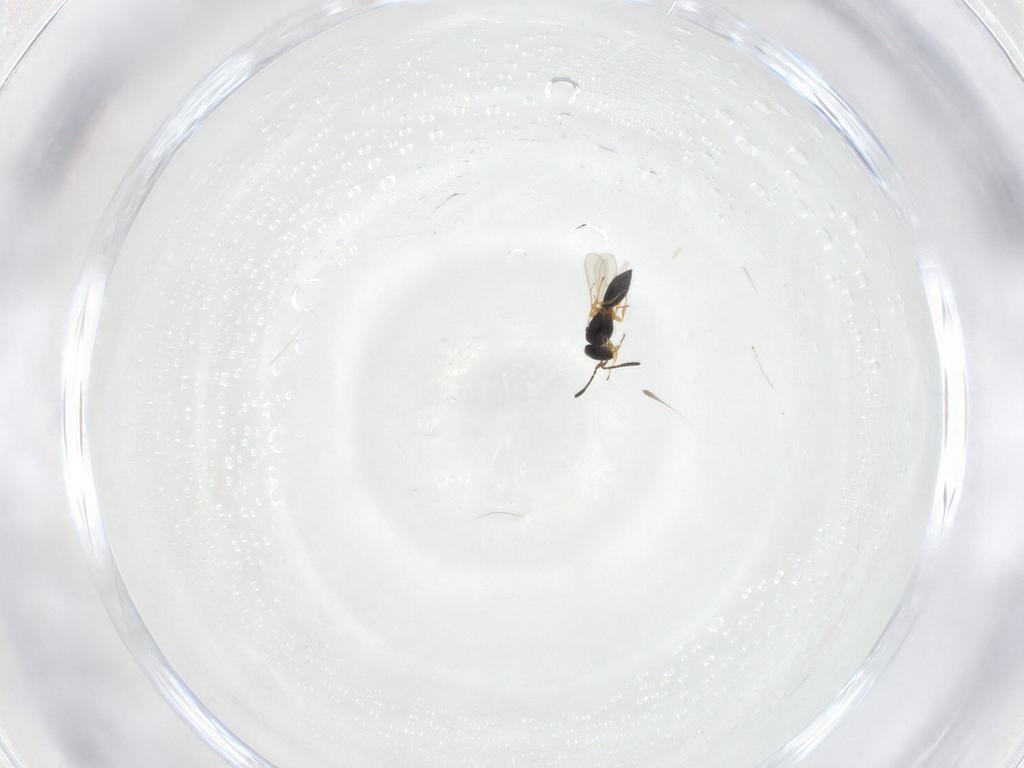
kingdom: Animalia
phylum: Arthropoda
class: Insecta
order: Hymenoptera
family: Scelionidae
